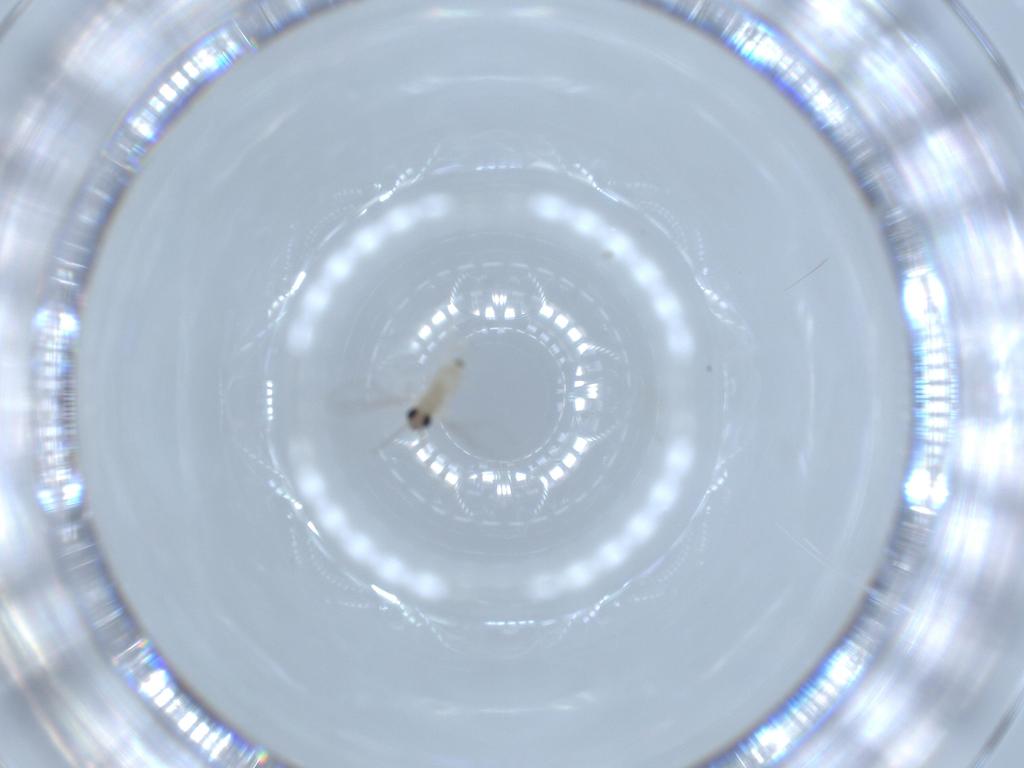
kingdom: Animalia
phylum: Arthropoda
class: Insecta
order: Diptera
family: Cecidomyiidae
